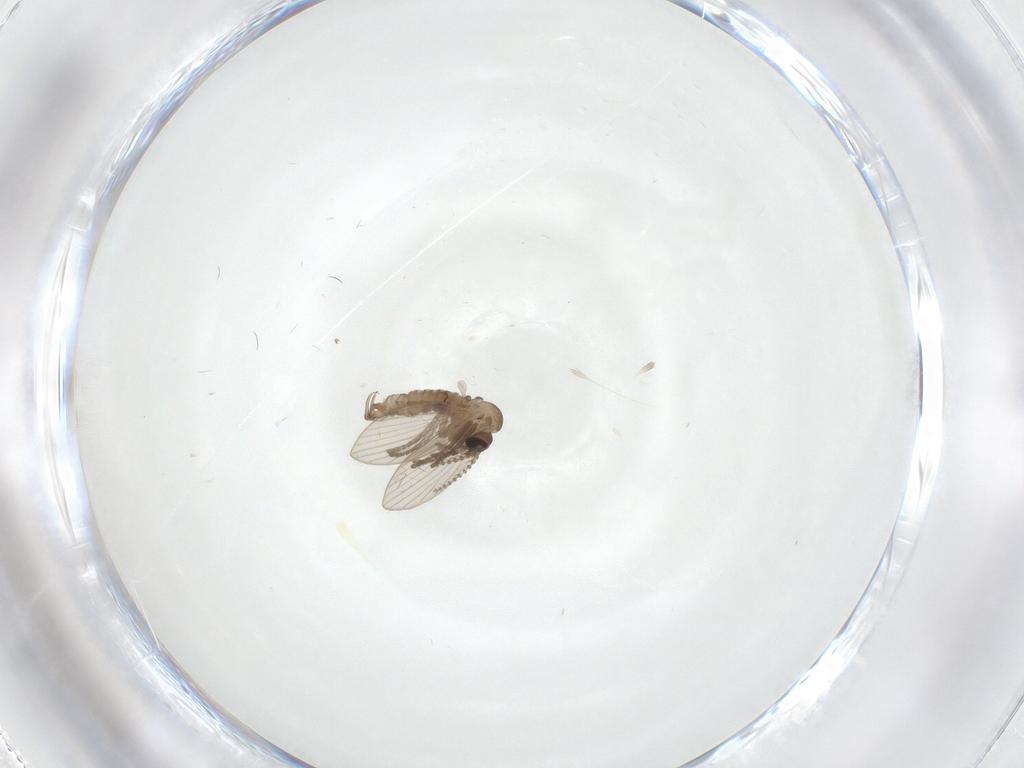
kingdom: Animalia
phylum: Arthropoda
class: Insecta
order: Diptera
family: Psychodidae
